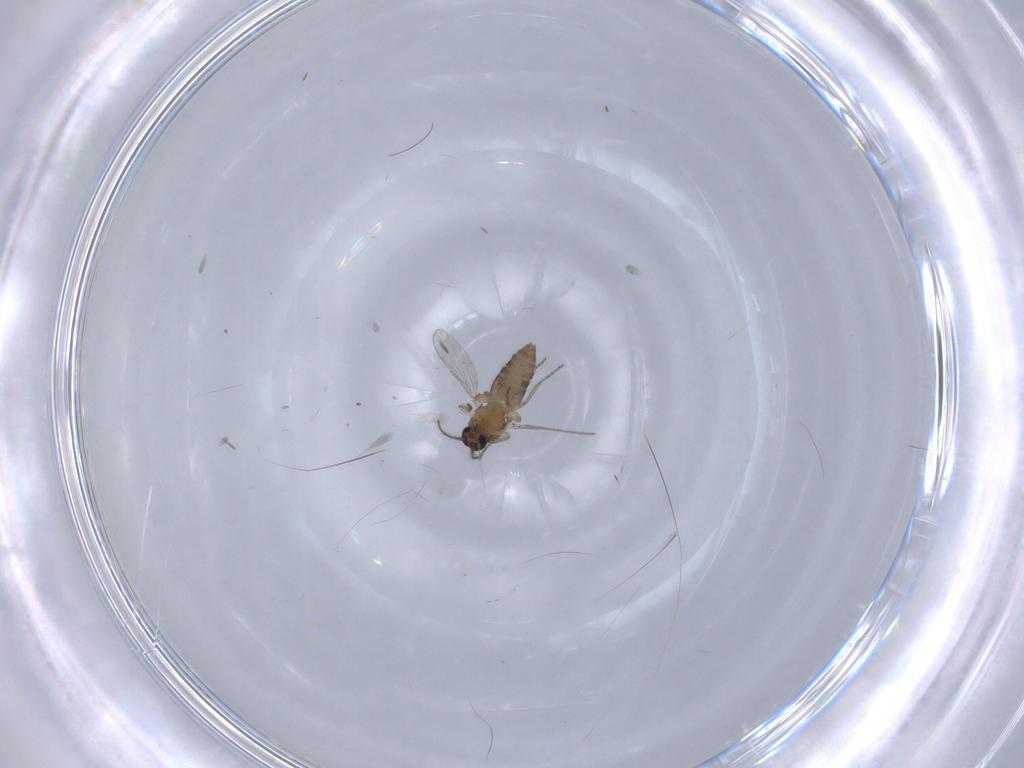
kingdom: Animalia
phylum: Arthropoda
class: Insecta
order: Diptera
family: Ceratopogonidae
